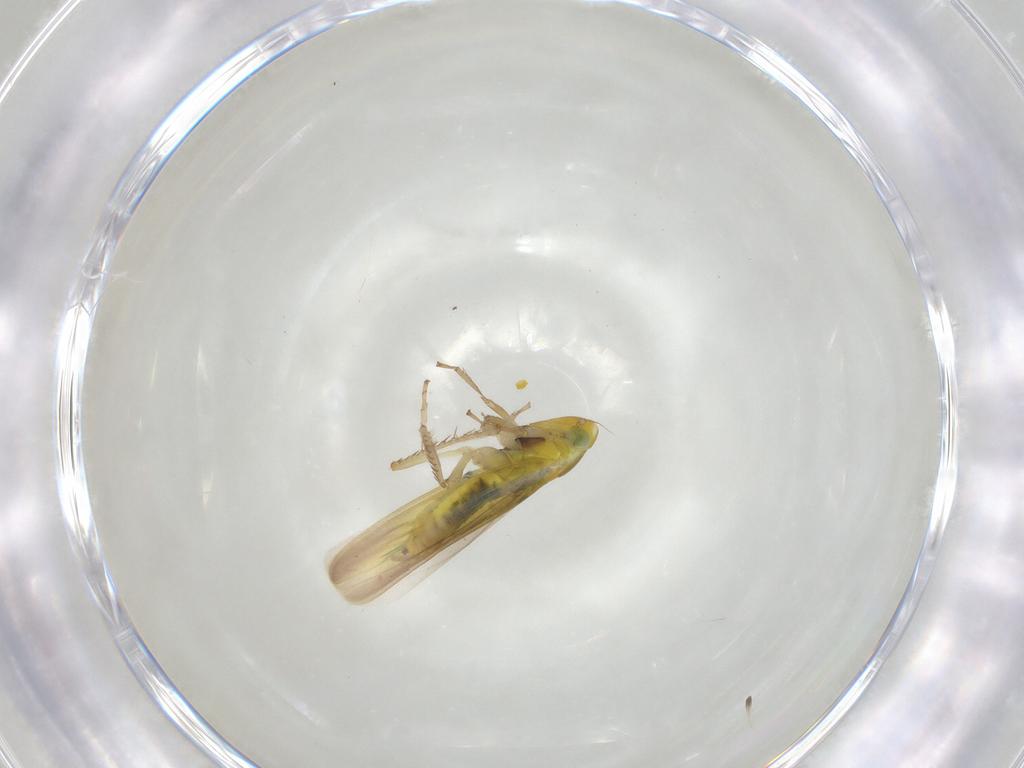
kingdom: Animalia
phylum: Arthropoda
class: Insecta
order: Hemiptera
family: Cicadellidae
